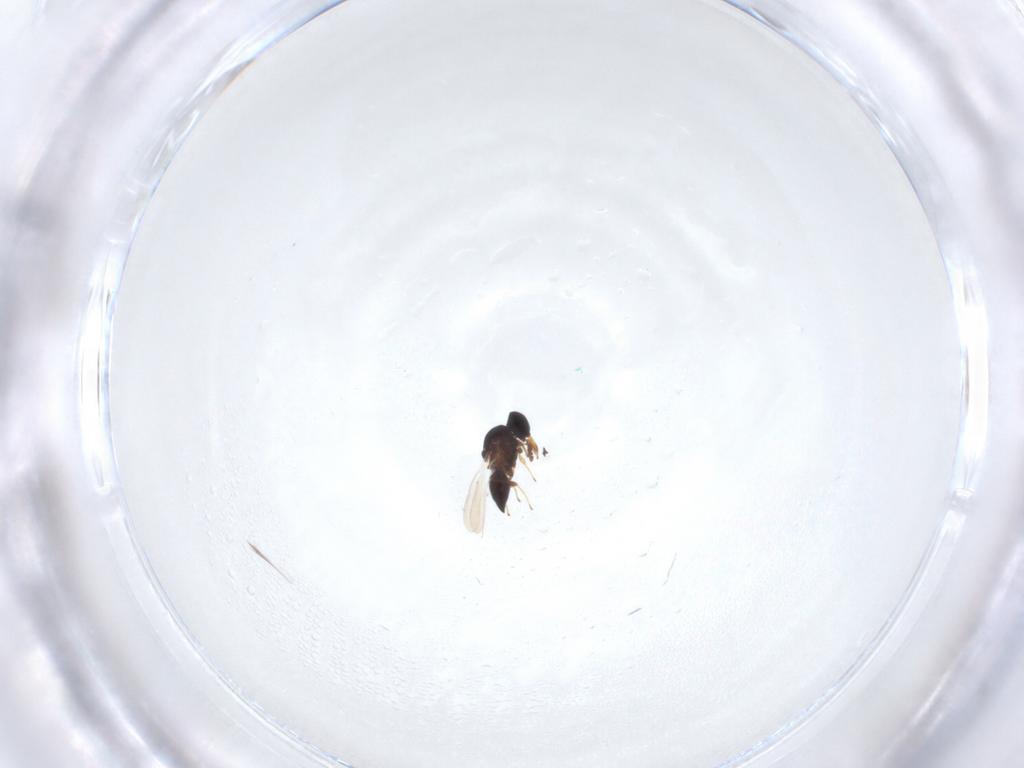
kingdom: Animalia
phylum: Arthropoda
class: Insecta
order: Hymenoptera
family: Platygastridae
